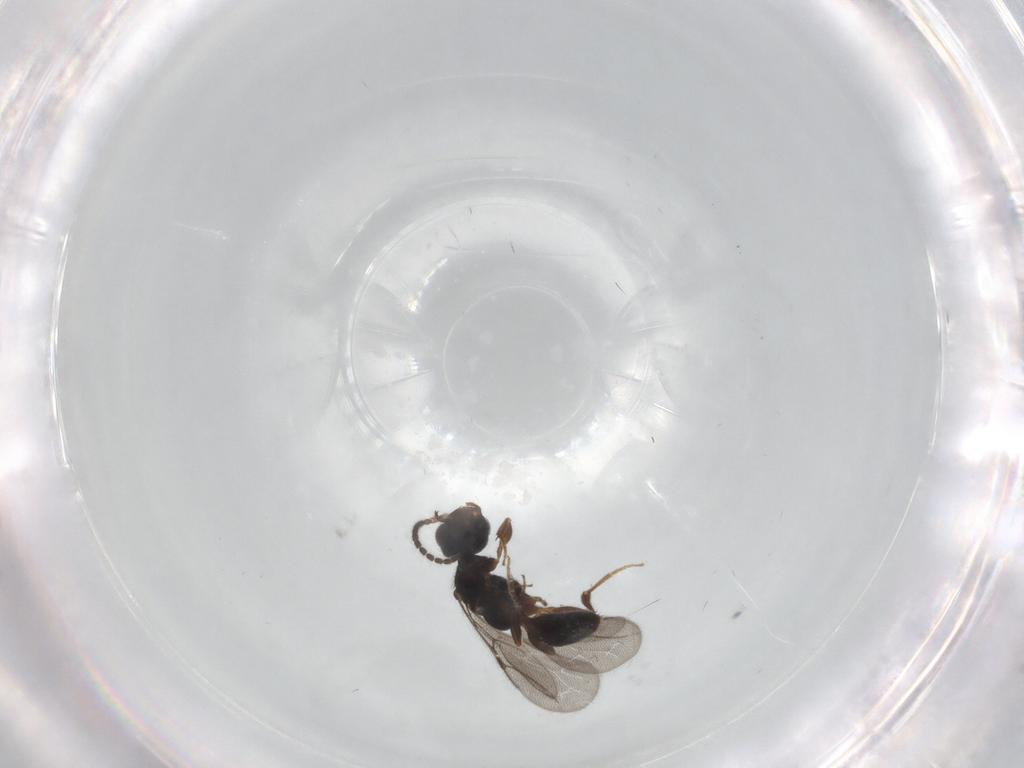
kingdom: Animalia
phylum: Arthropoda
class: Insecta
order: Hymenoptera
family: Bethylidae
